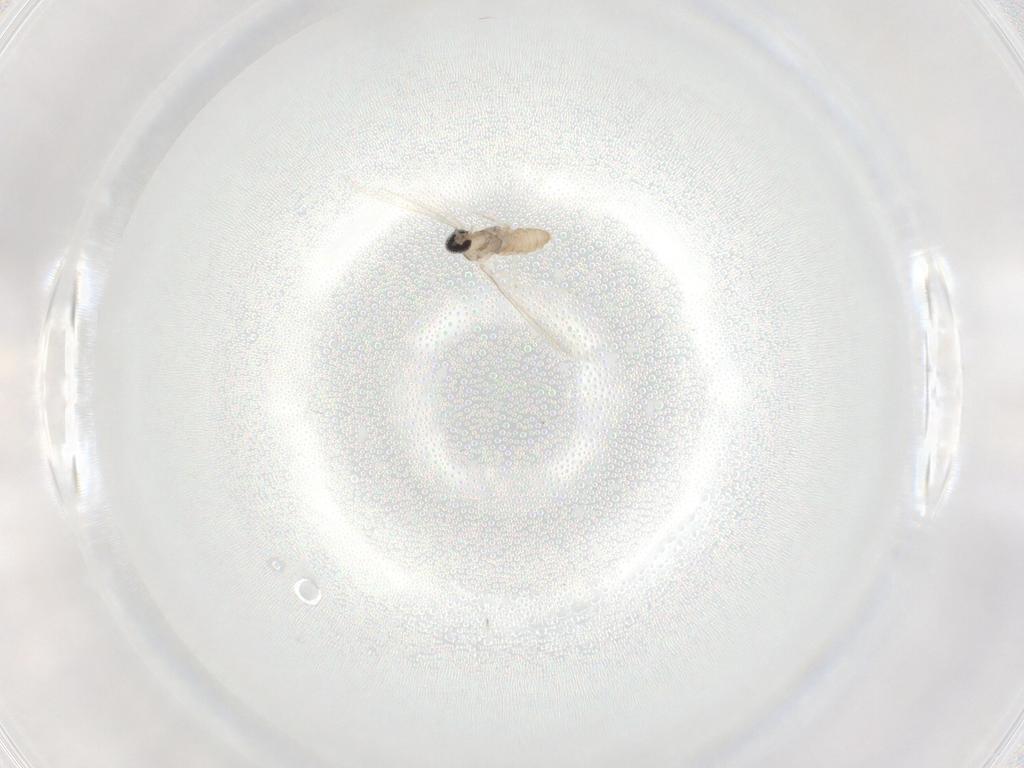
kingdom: Animalia
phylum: Arthropoda
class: Insecta
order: Diptera
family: Cecidomyiidae
